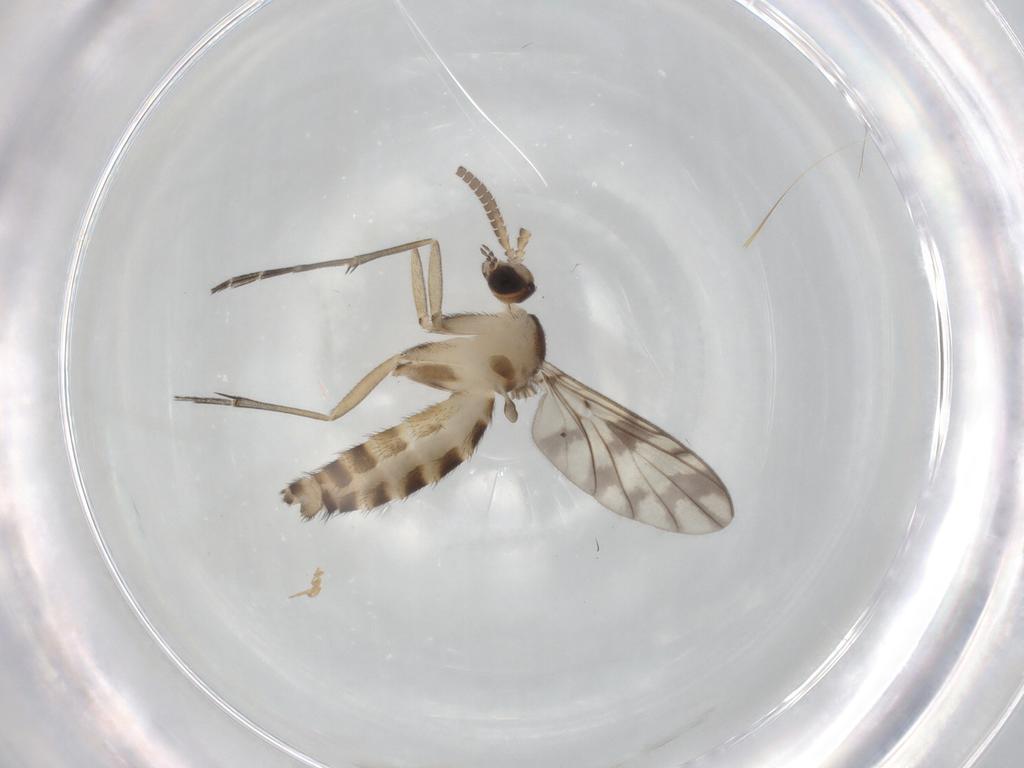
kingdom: Animalia
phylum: Arthropoda
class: Insecta
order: Diptera
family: Keroplatidae
